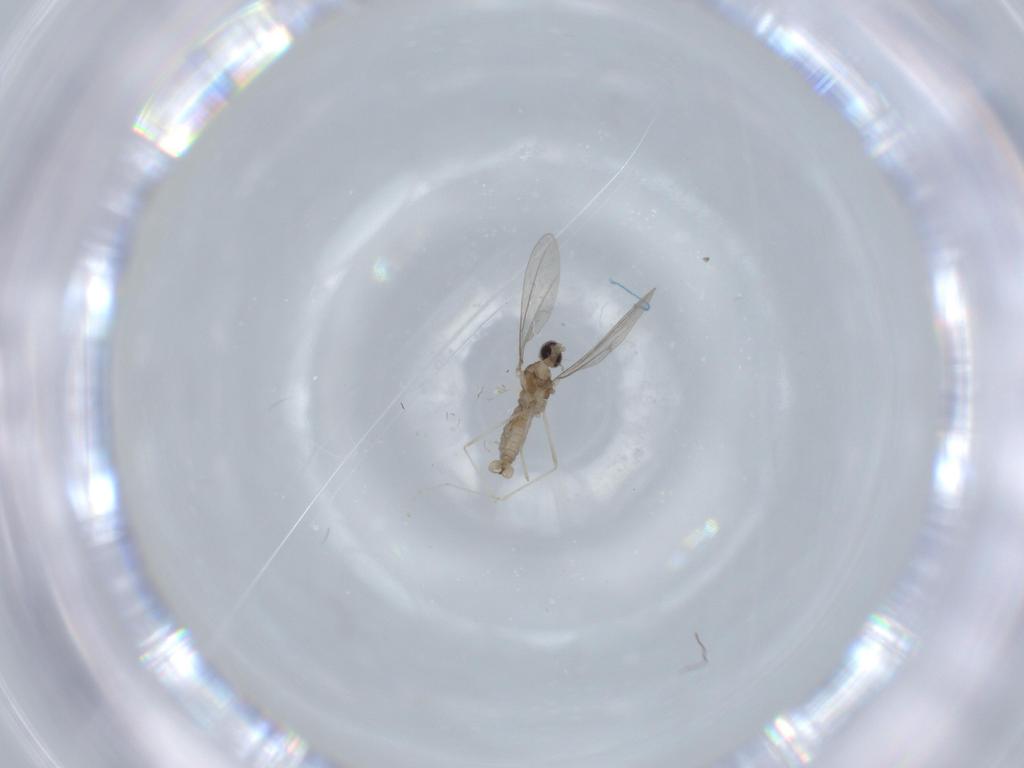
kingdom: Animalia
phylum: Arthropoda
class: Insecta
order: Diptera
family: Cecidomyiidae
